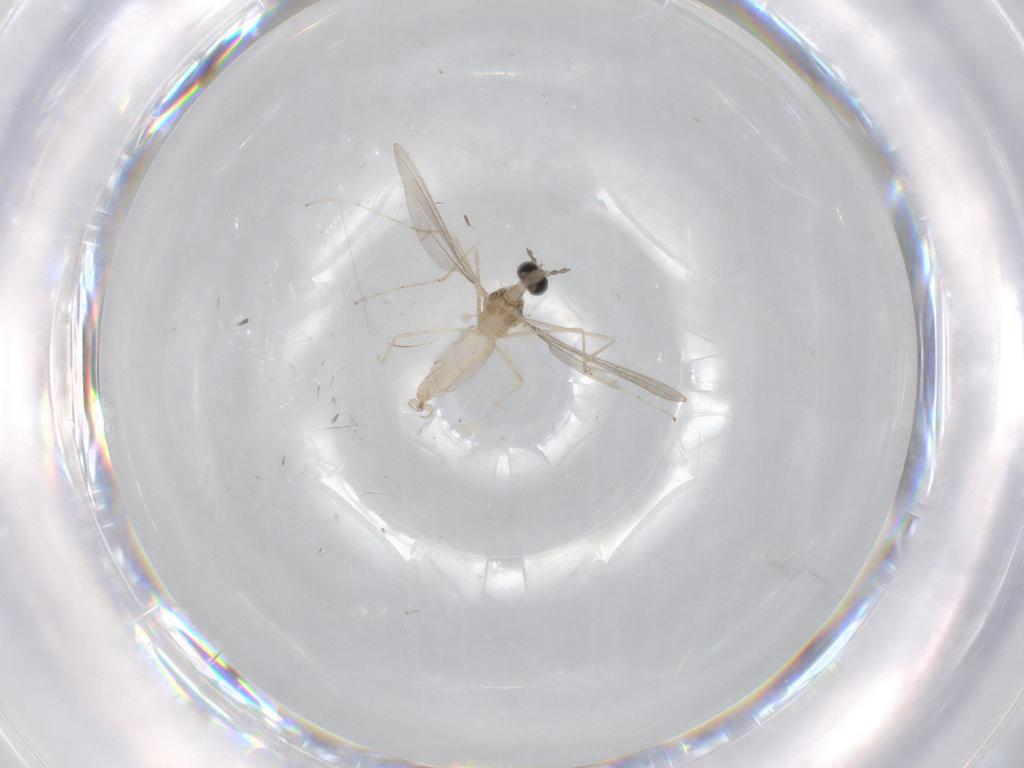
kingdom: Animalia
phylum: Arthropoda
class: Insecta
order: Diptera
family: Cecidomyiidae
